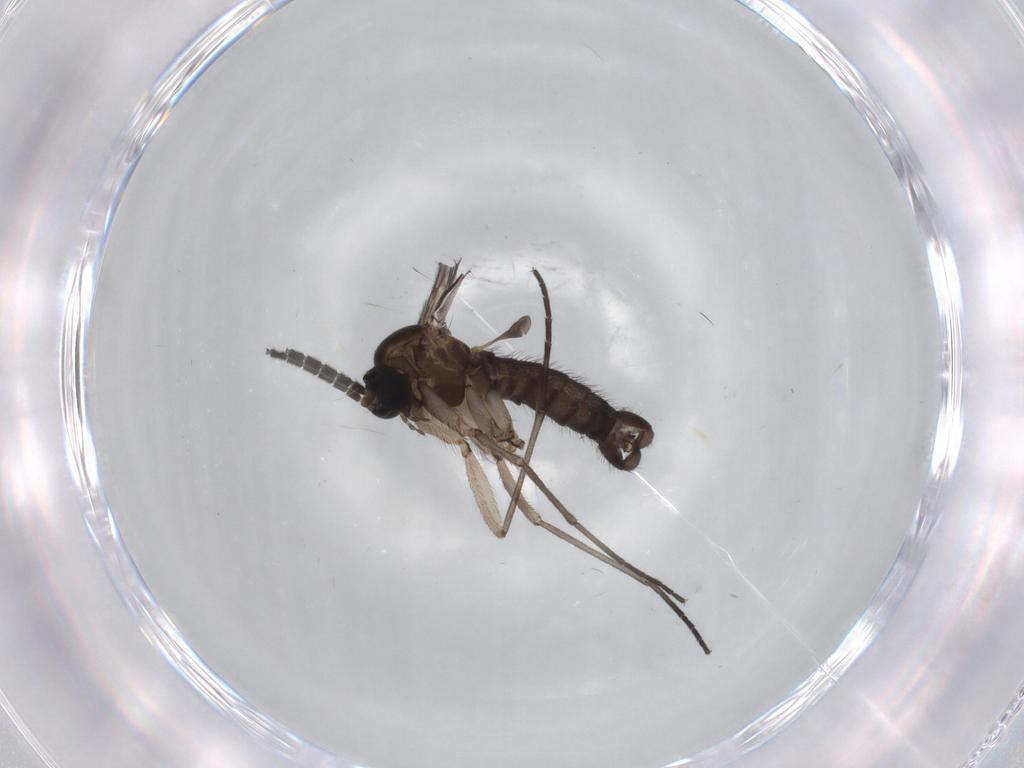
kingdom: Animalia
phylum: Arthropoda
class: Insecta
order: Diptera
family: Sciaridae
